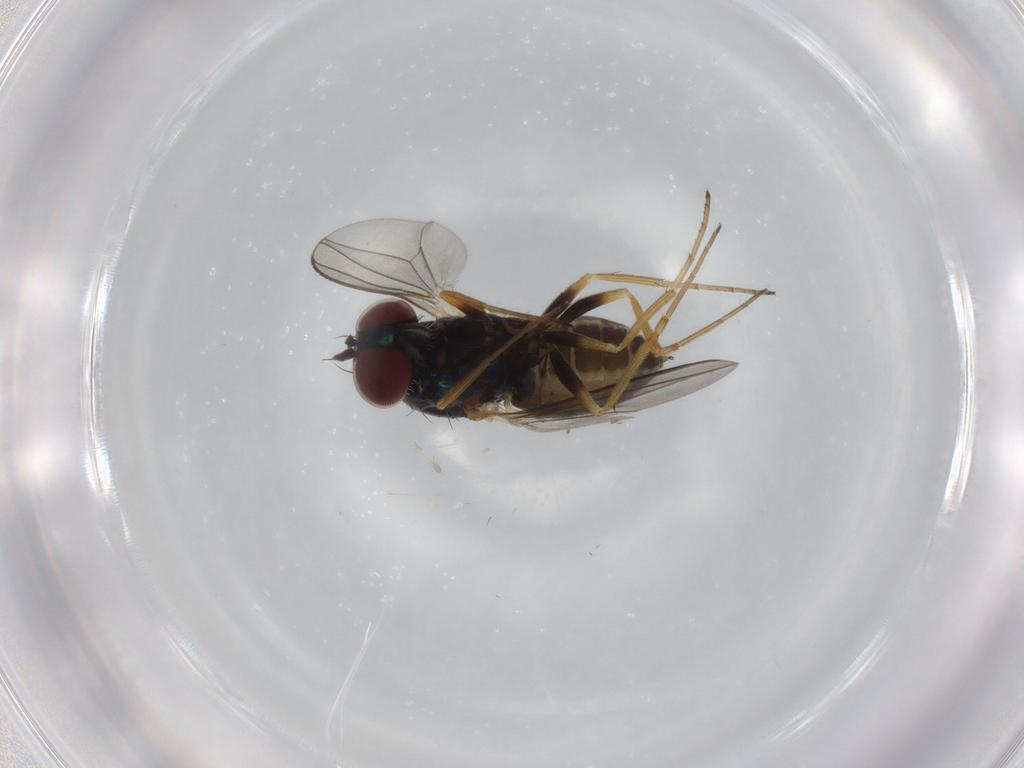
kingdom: Animalia
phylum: Arthropoda
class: Insecta
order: Diptera
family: Dolichopodidae
